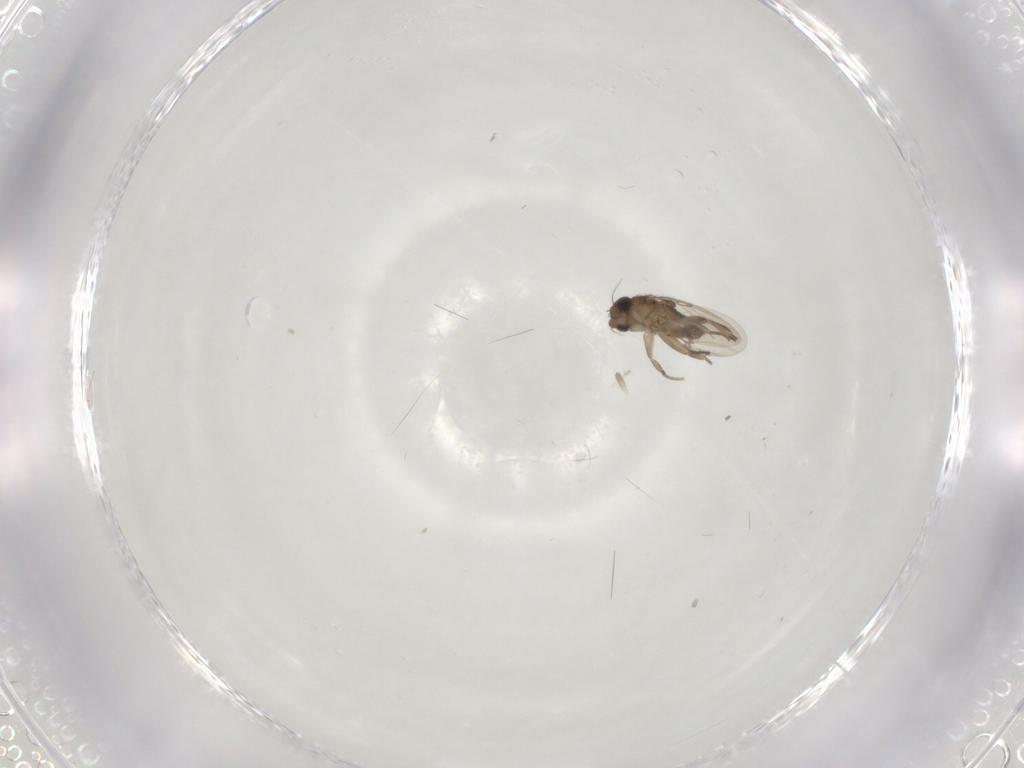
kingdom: Animalia
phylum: Arthropoda
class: Insecta
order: Diptera
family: Phoridae
